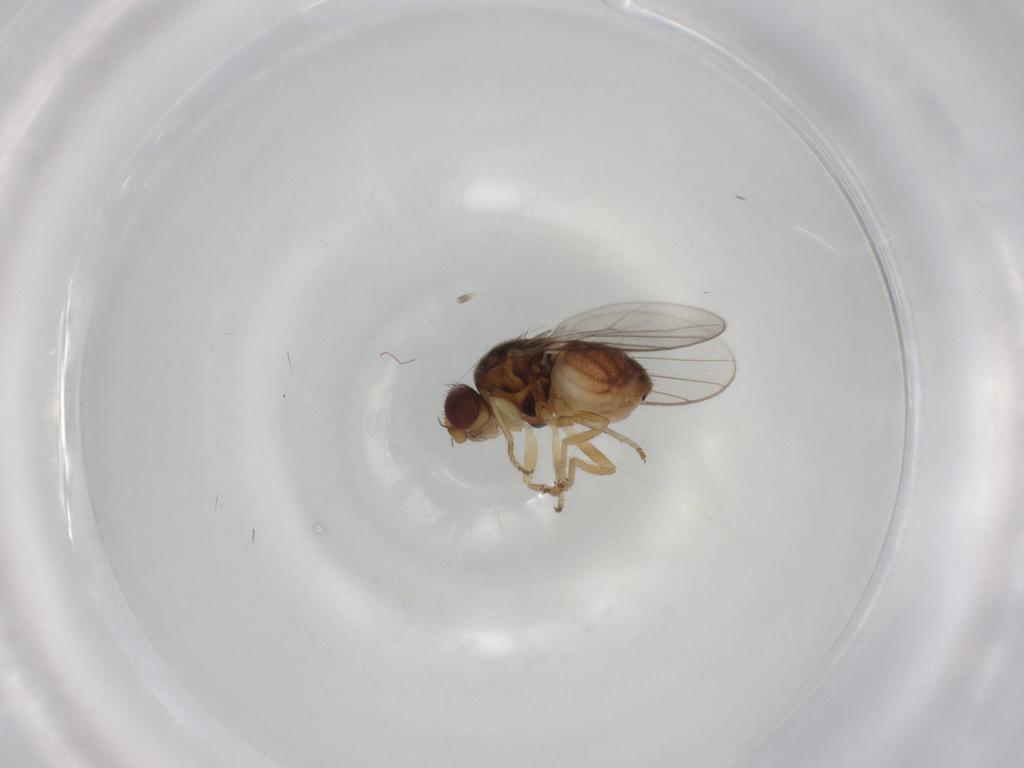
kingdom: Animalia
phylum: Arthropoda
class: Insecta
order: Diptera
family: Chloropidae
